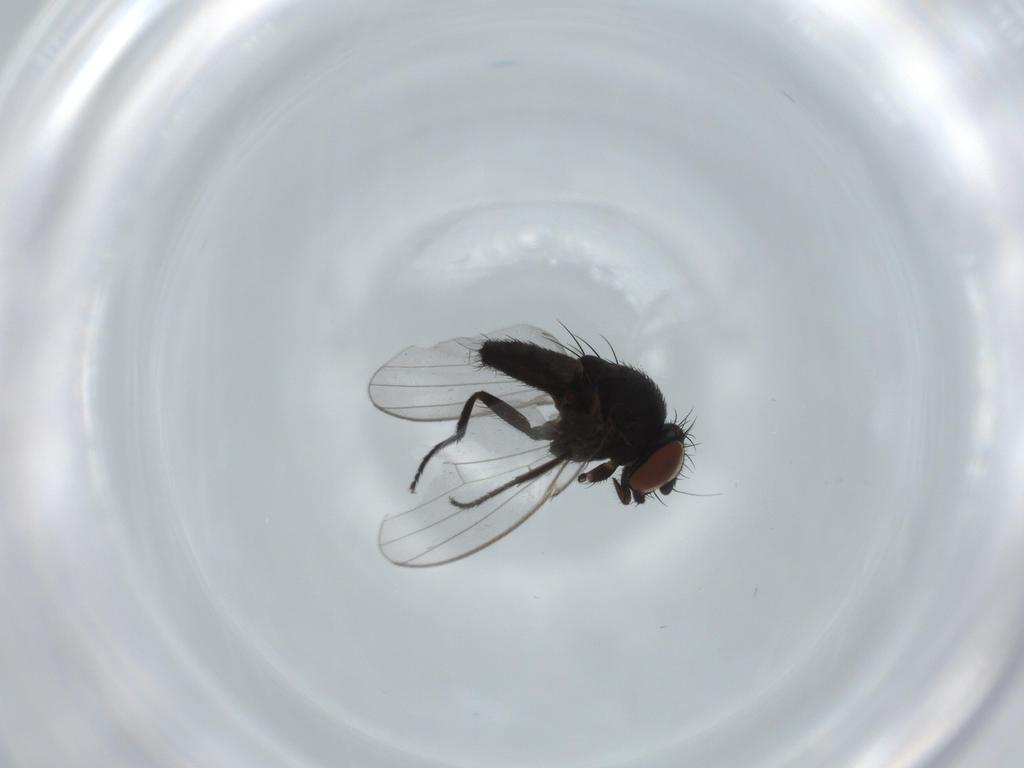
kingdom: Animalia
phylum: Arthropoda
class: Insecta
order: Diptera
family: Milichiidae
